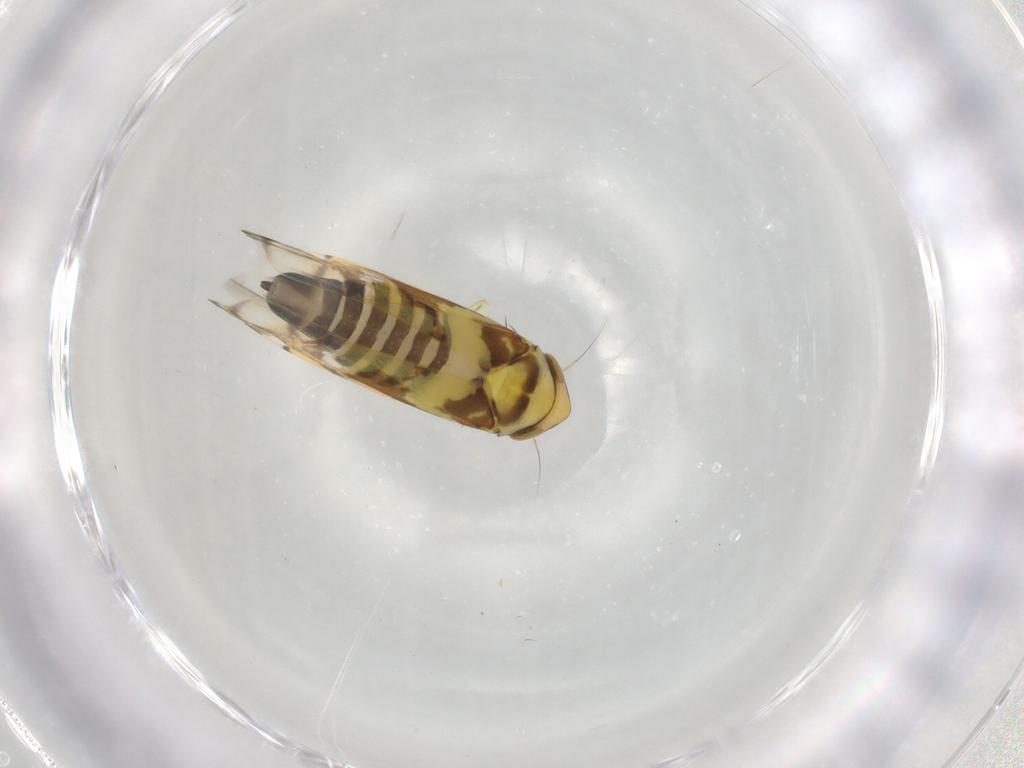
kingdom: Animalia
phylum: Arthropoda
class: Insecta
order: Hemiptera
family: Cicadellidae
